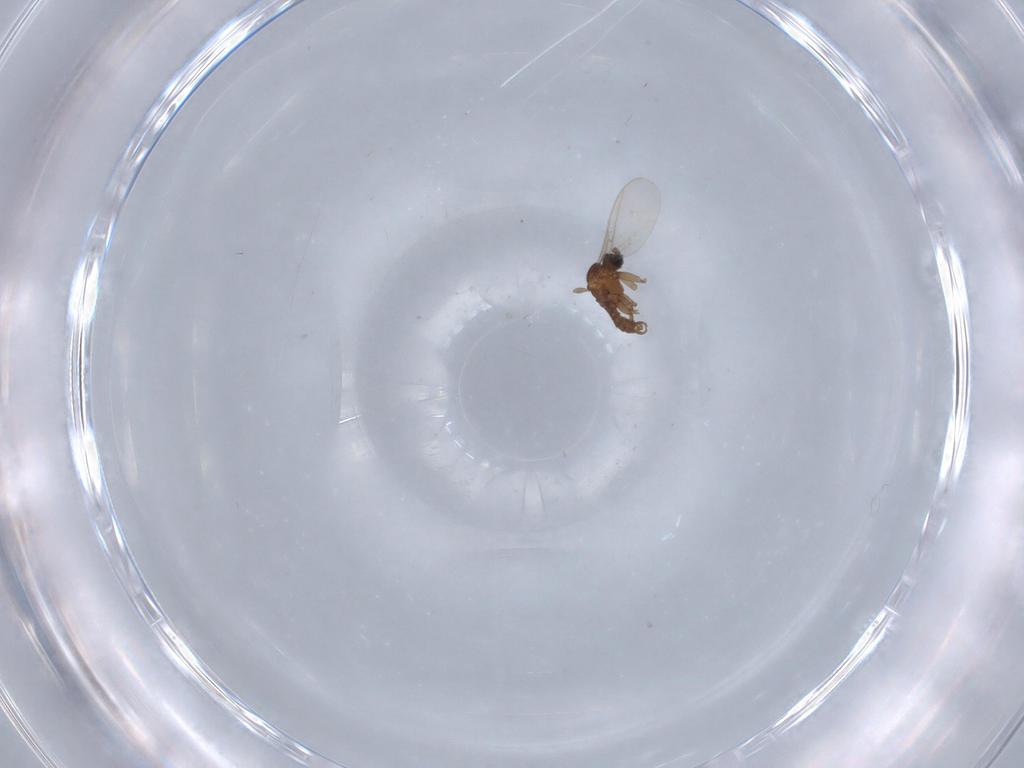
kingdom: Animalia
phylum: Arthropoda
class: Insecta
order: Diptera
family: Sciaridae
